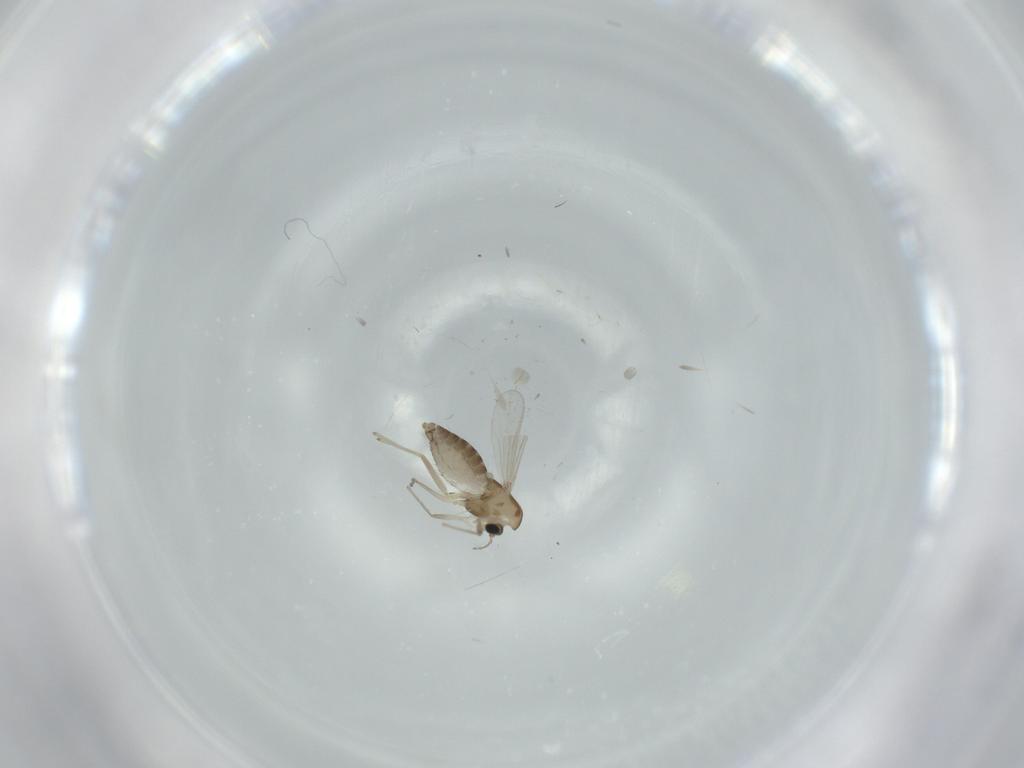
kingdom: Animalia
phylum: Arthropoda
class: Insecta
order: Diptera
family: Chironomidae
